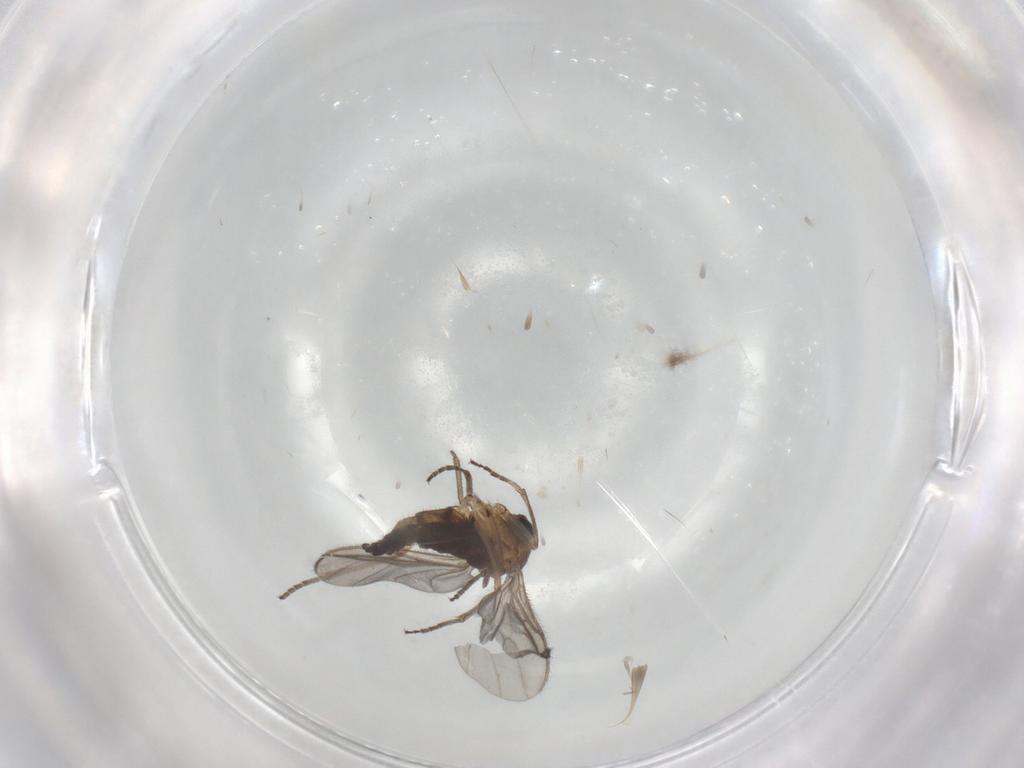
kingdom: Animalia
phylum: Arthropoda
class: Insecta
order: Diptera
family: Sciaridae
